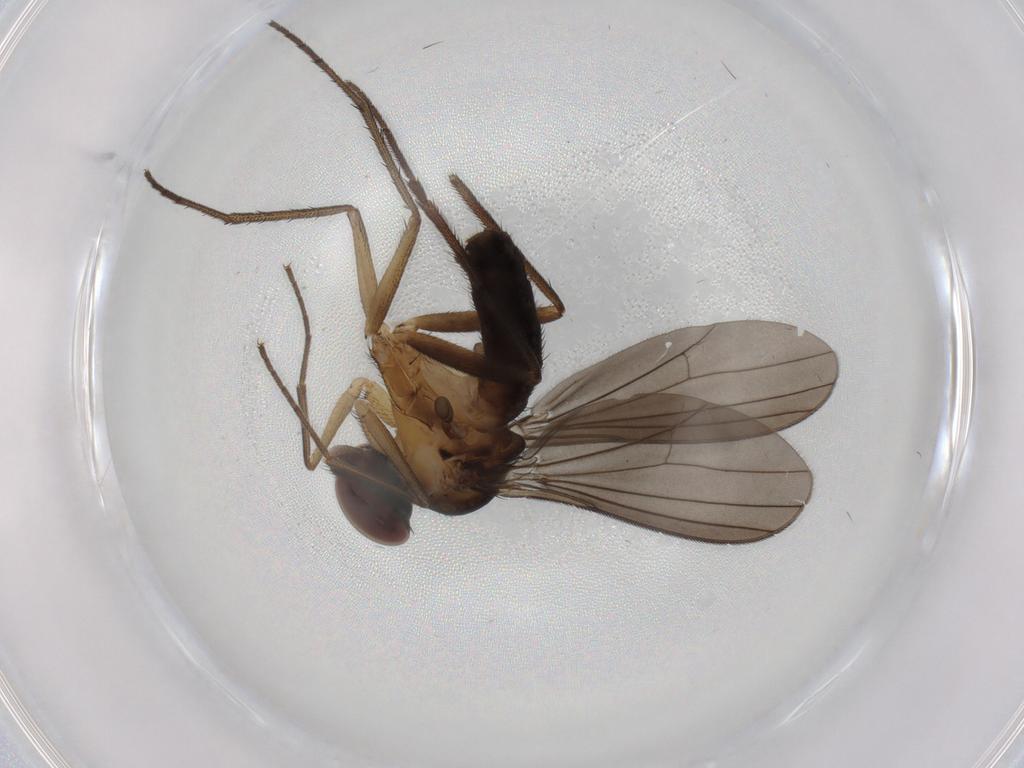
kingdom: Animalia
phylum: Arthropoda
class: Insecta
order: Diptera
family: Dolichopodidae
